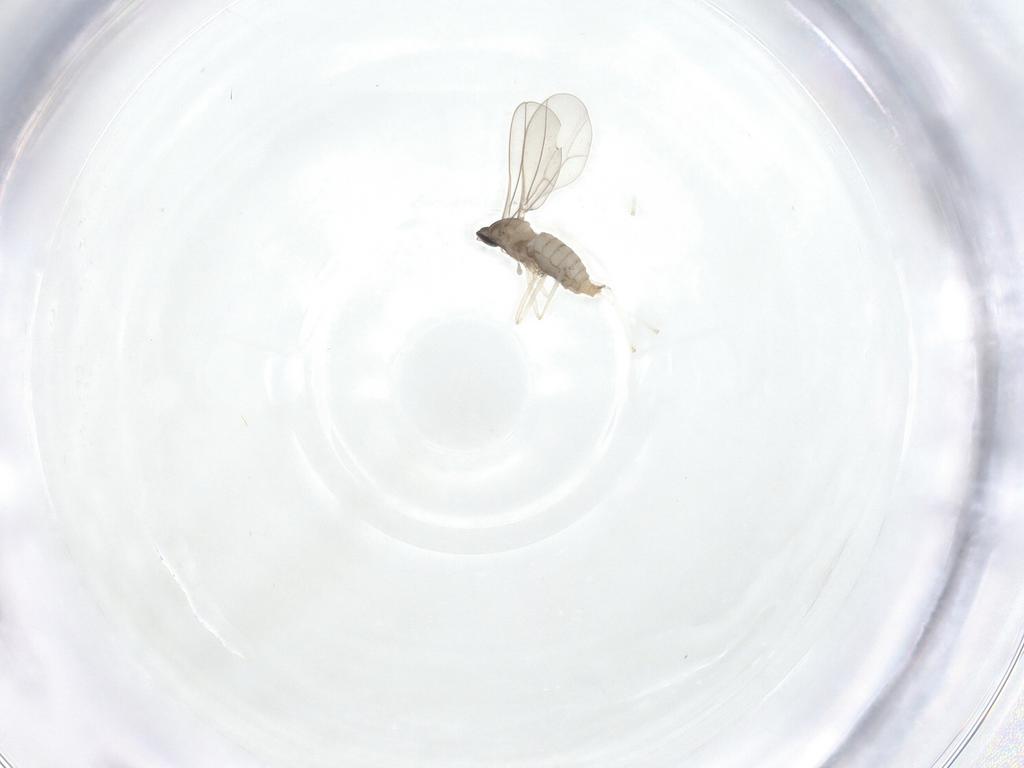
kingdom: Animalia
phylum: Arthropoda
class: Insecta
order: Diptera
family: Cecidomyiidae
